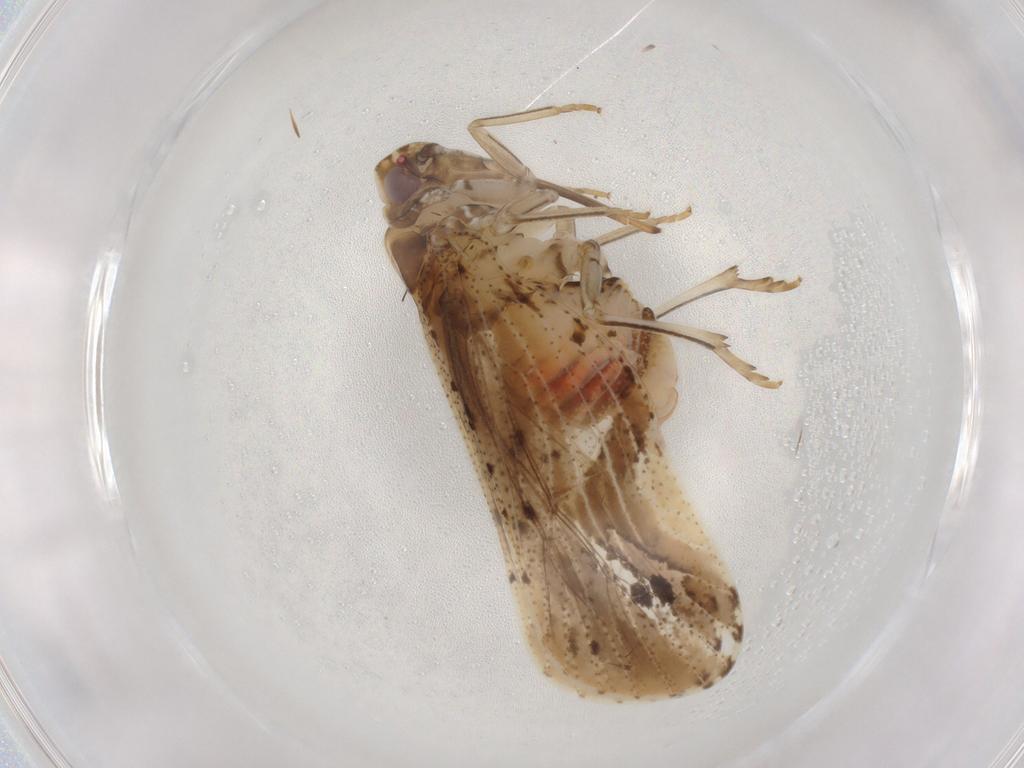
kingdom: Animalia
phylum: Arthropoda
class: Insecta
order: Hemiptera
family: Cixiidae
